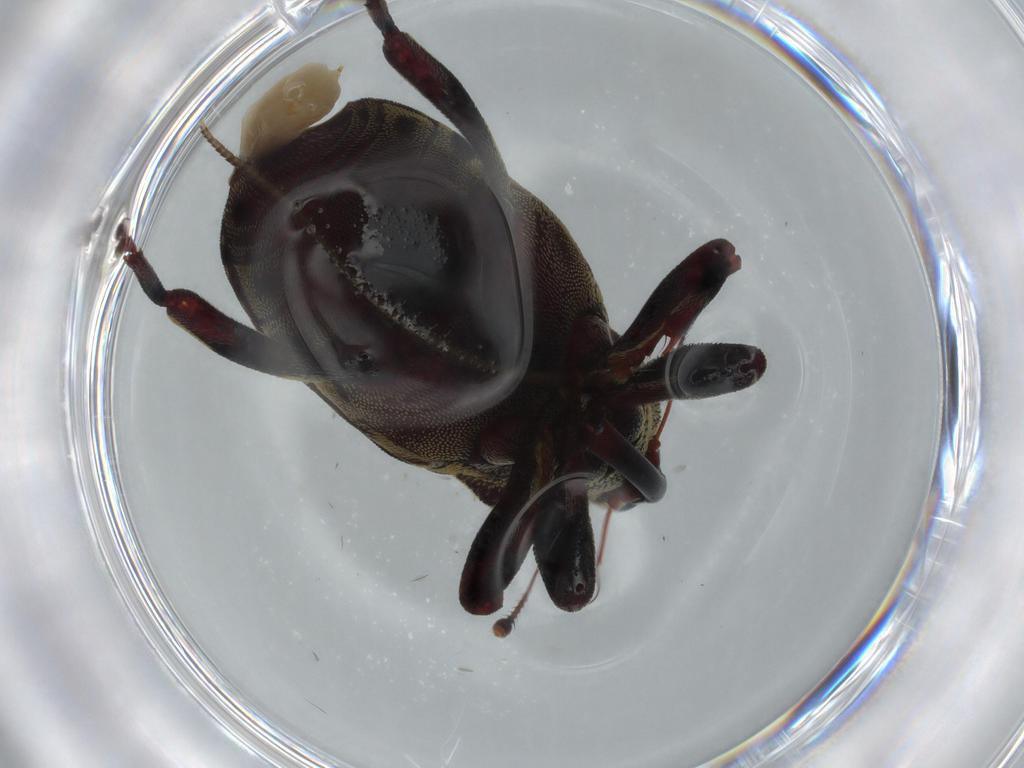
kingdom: Animalia
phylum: Arthropoda
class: Insecta
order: Coleoptera
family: Curculionidae
